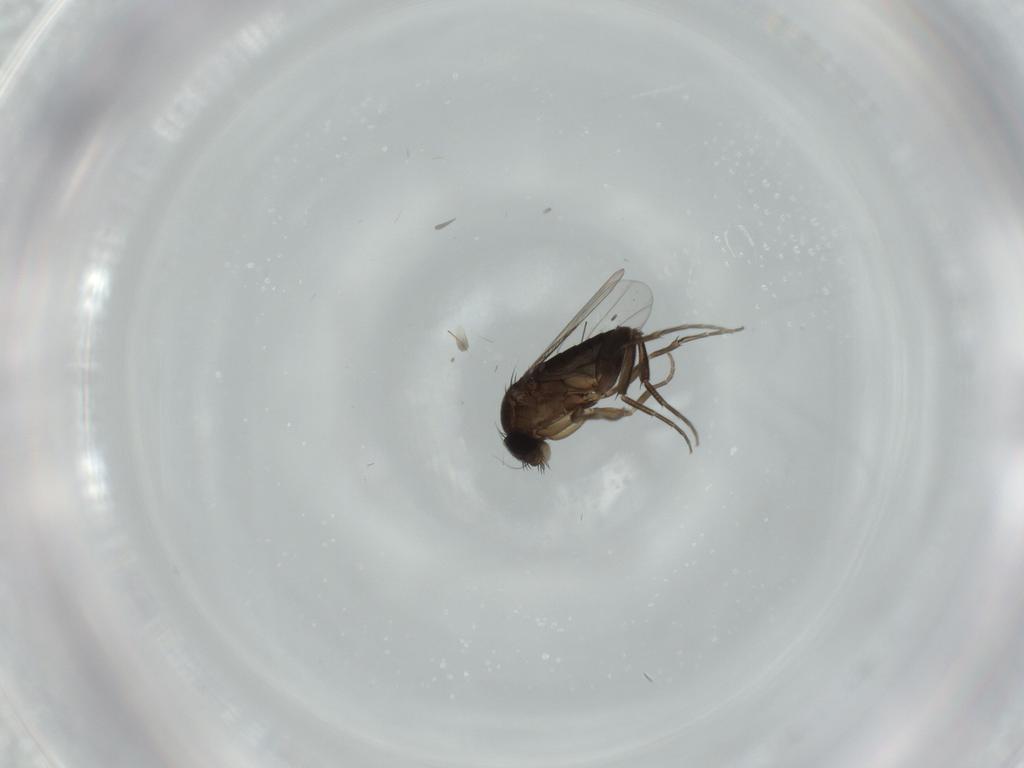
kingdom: Animalia
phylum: Arthropoda
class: Insecta
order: Diptera
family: Phoridae
